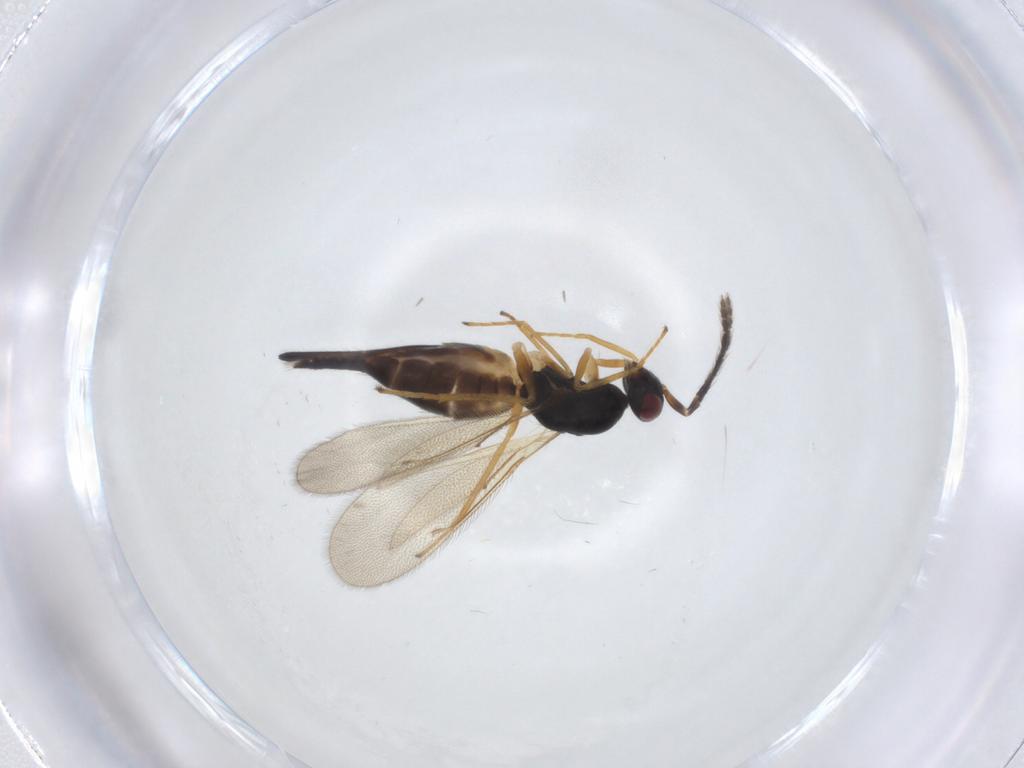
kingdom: Animalia
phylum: Arthropoda
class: Insecta
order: Hymenoptera
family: Eulophidae
